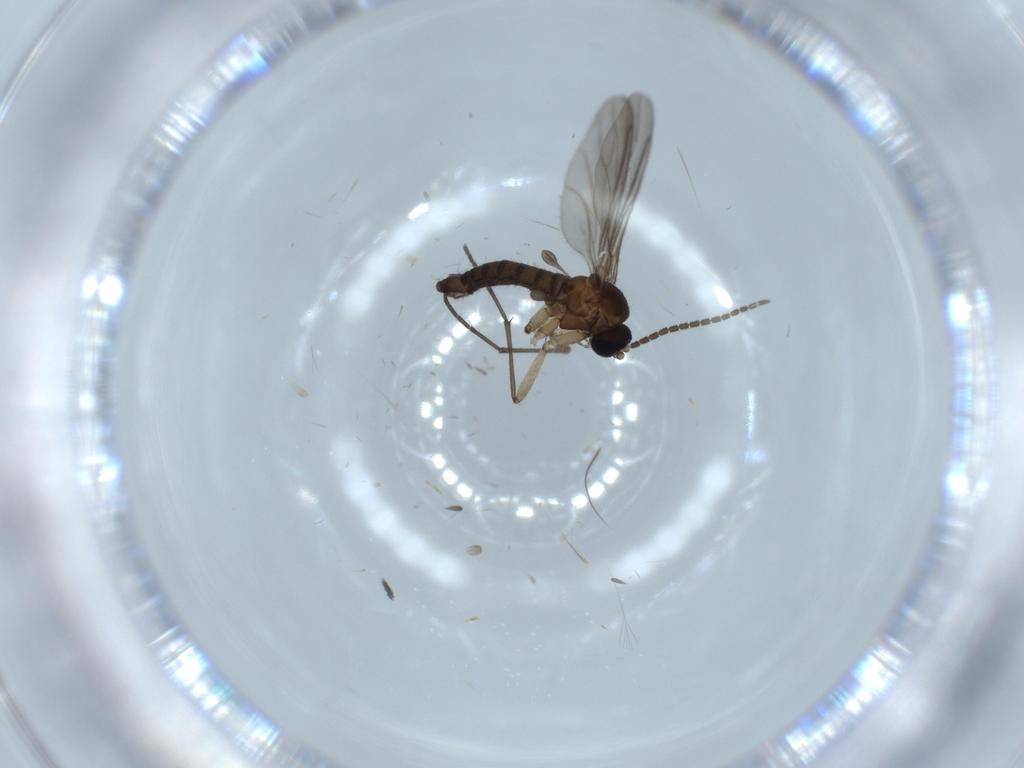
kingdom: Animalia
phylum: Arthropoda
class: Insecta
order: Diptera
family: Sciaridae
